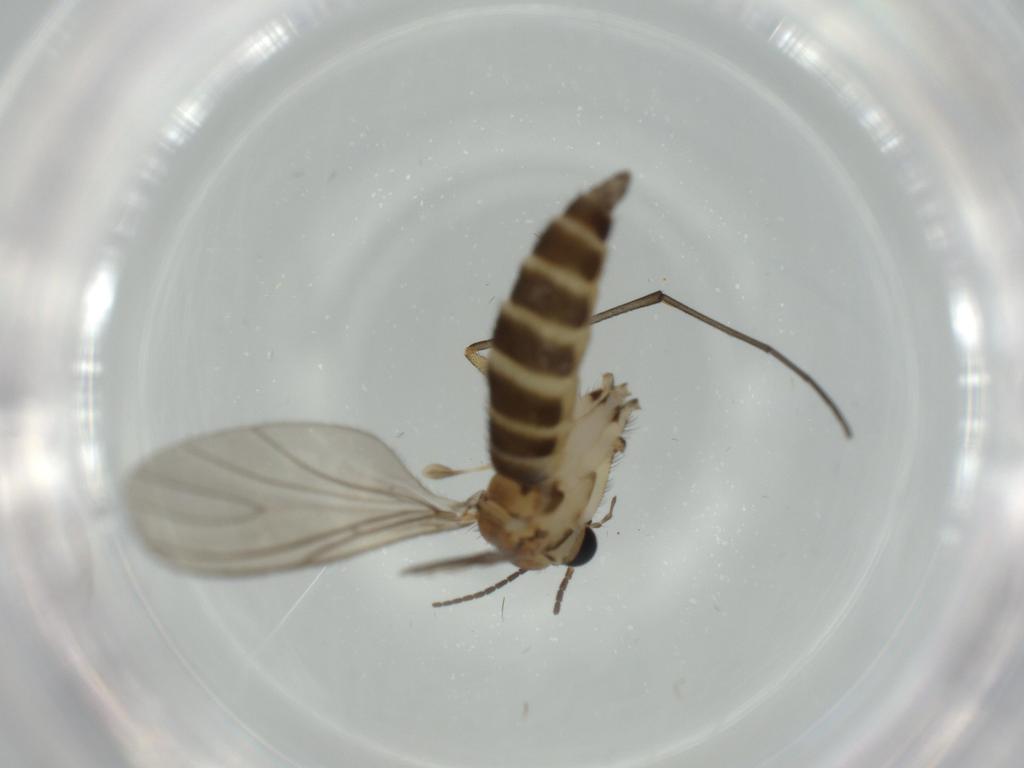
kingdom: Animalia
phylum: Arthropoda
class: Insecta
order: Diptera
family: Sciaridae
